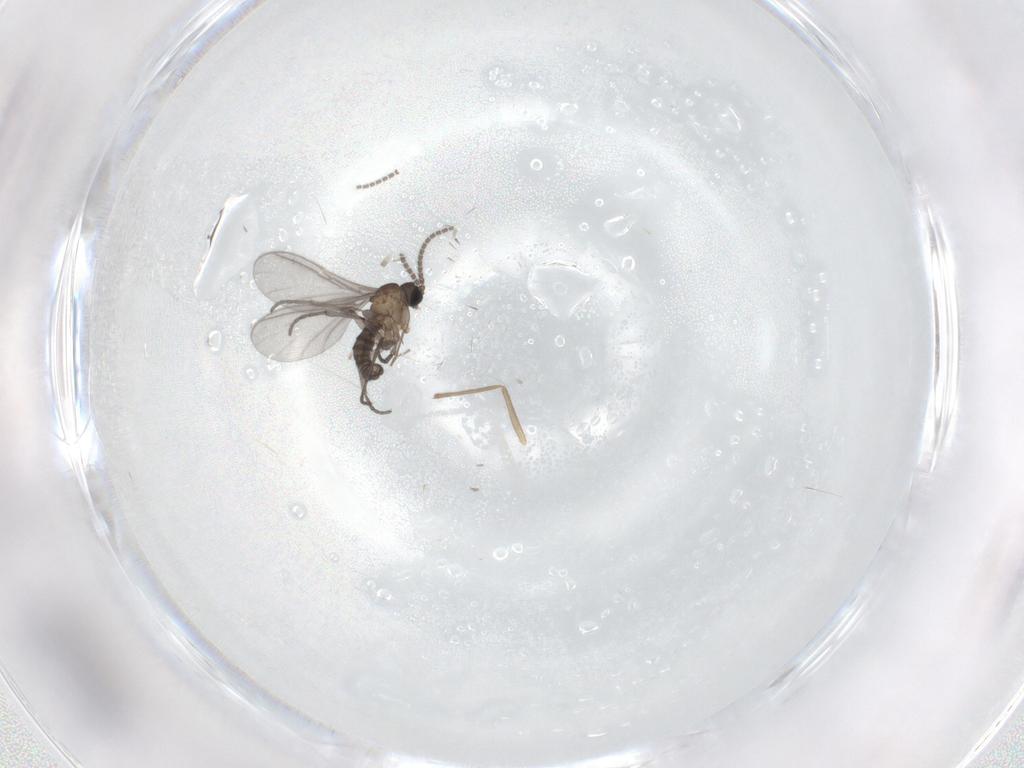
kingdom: Animalia
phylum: Arthropoda
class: Insecta
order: Diptera
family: Sciaridae
